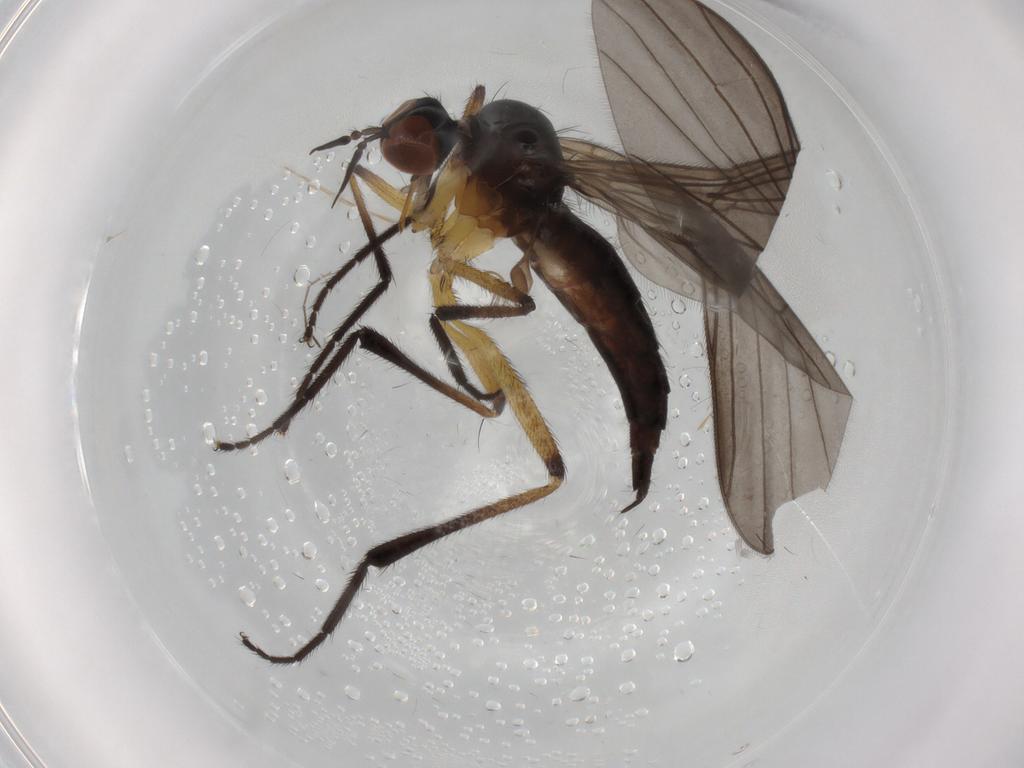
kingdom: Animalia
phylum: Arthropoda
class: Insecta
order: Diptera
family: Empididae
